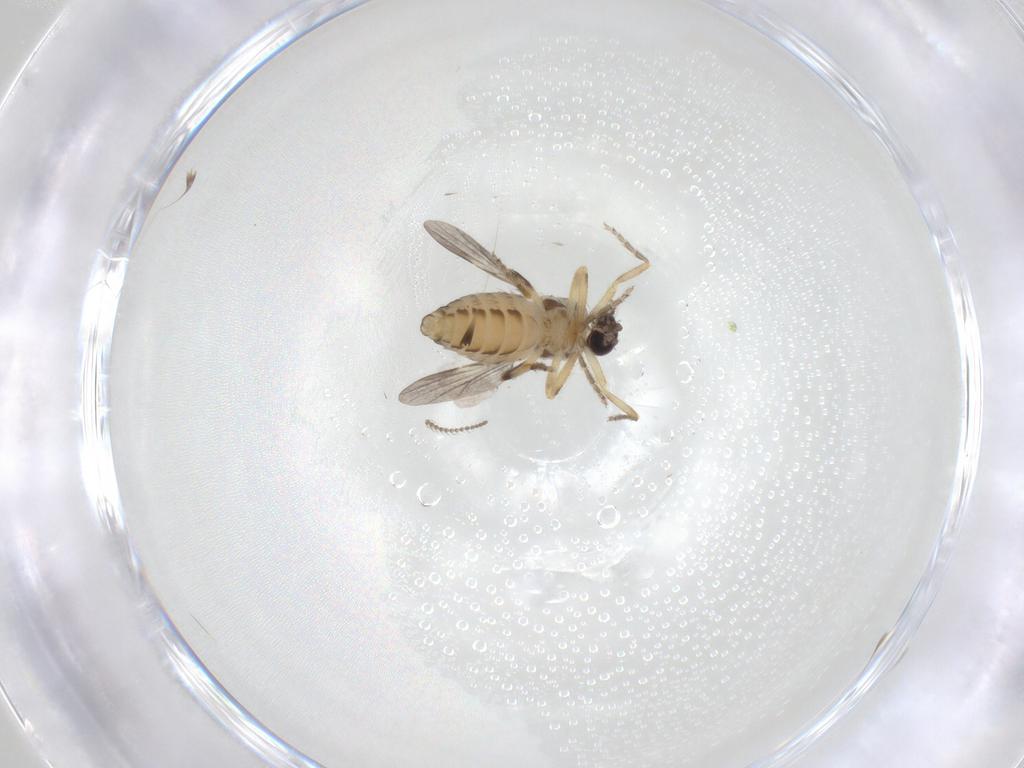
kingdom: Animalia
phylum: Arthropoda
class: Insecta
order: Diptera
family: Ceratopogonidae
